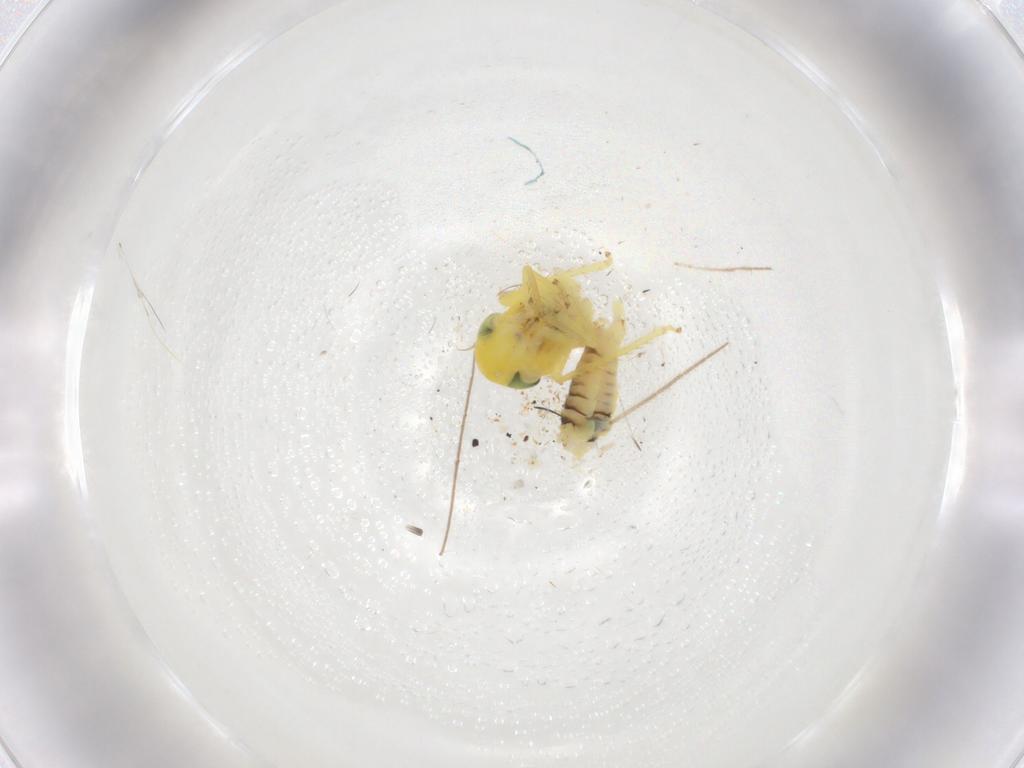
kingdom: Animalia
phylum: Arthropoda
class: Insecta
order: Hemiptera
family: Cicadellidae
